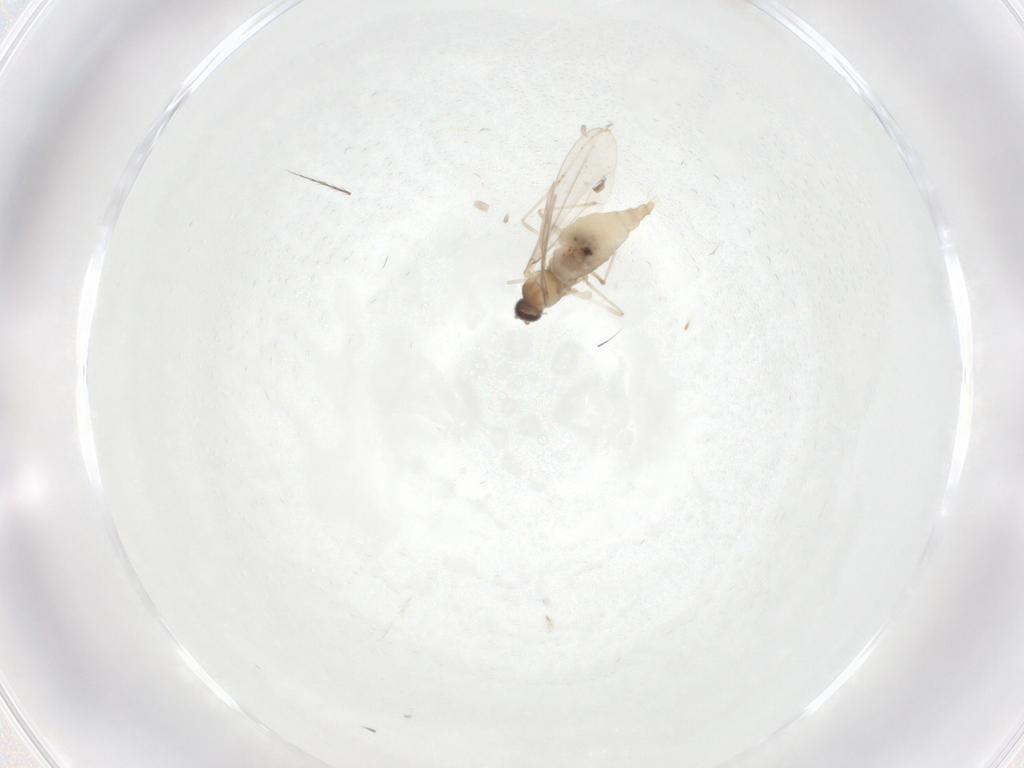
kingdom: Animalia
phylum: Arthropoda
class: Insecta
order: Diptera
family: Cecidomyiidae
